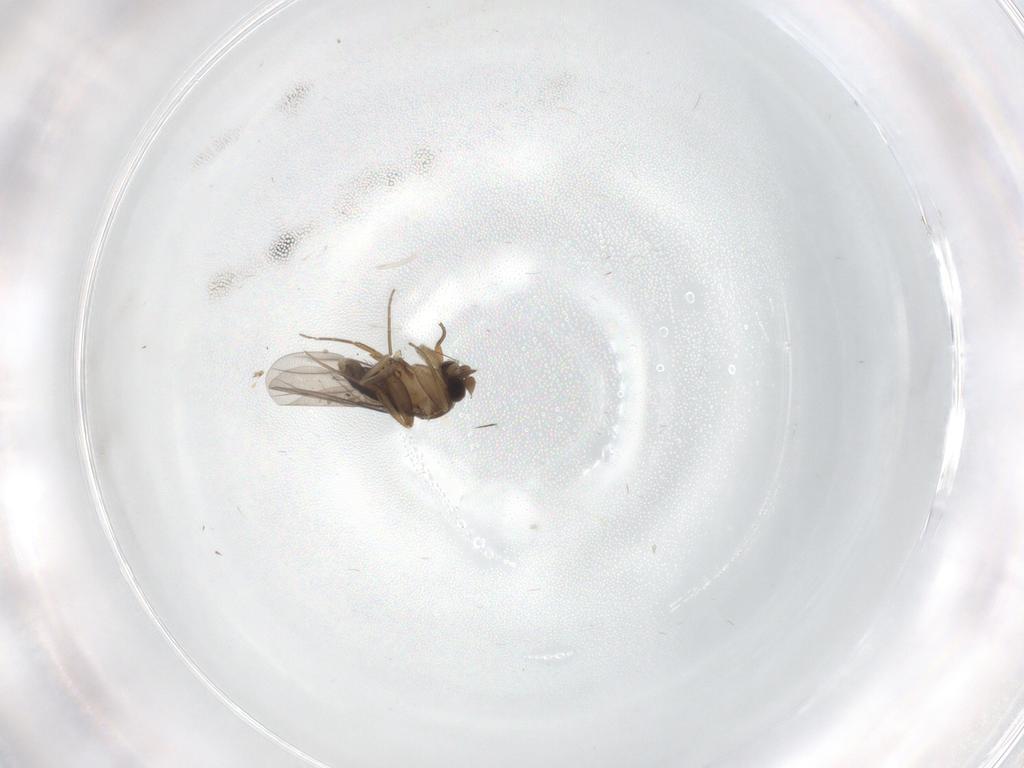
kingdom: Animalia
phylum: Arthropoda
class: Insecta
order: Diptera
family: Phoridae
